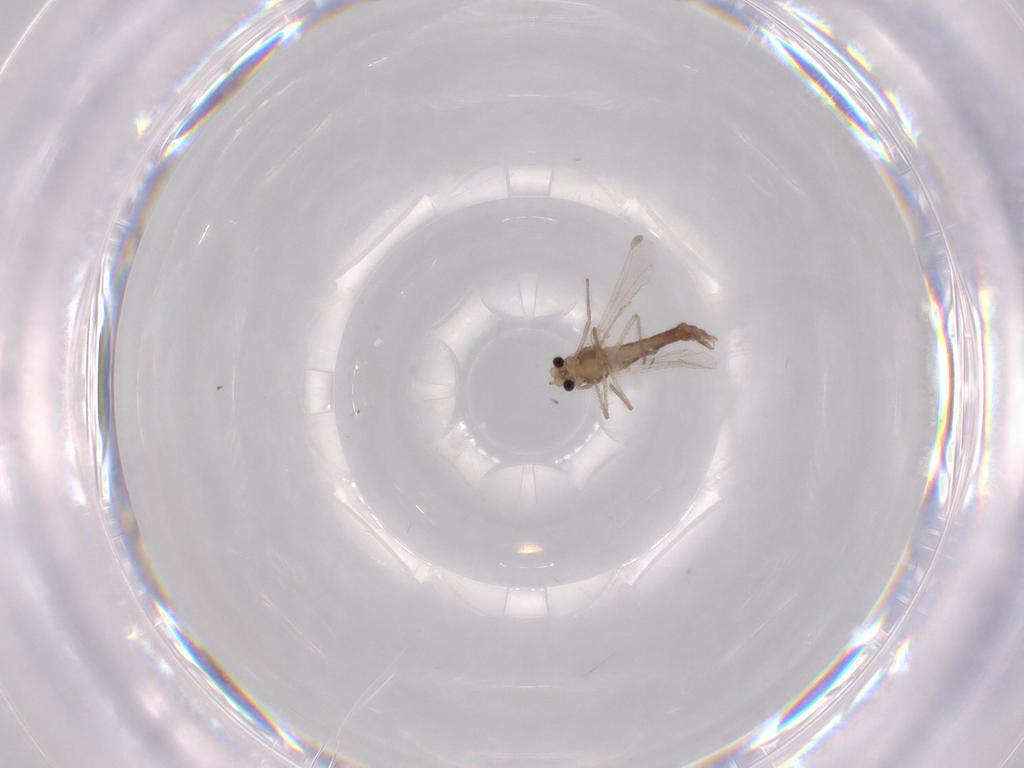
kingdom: Animalia
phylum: Arthropoda
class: Insecta
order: Diptera
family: Chironomidae
